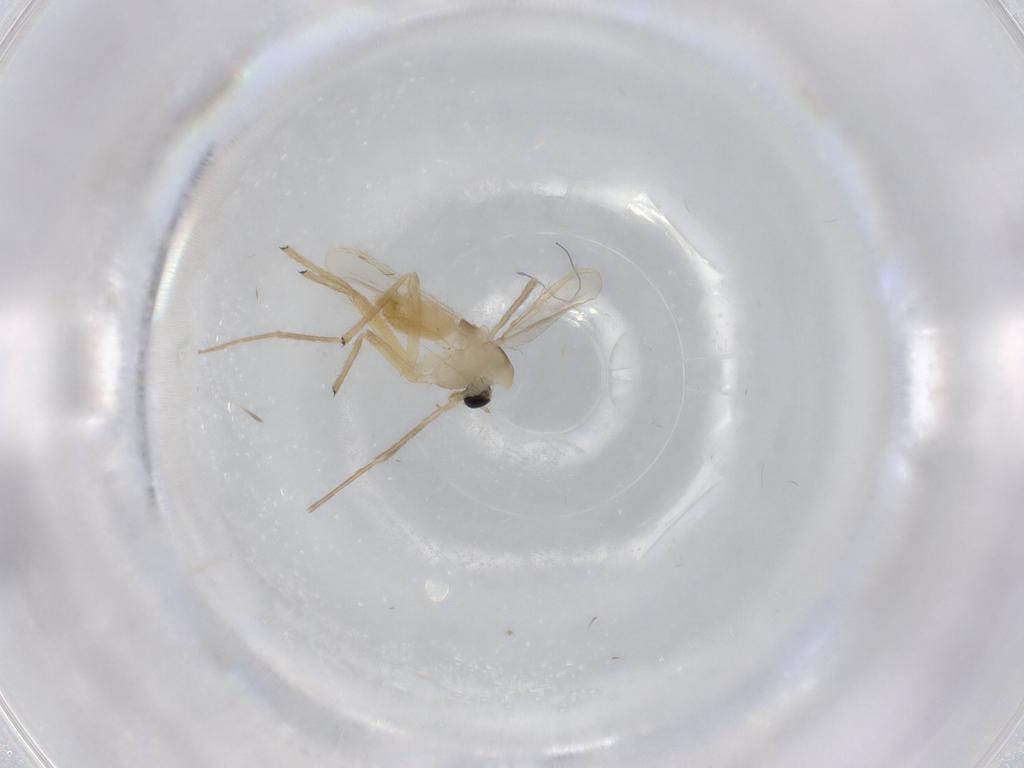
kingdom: Animalia
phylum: Arthropoda
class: Insecta
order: Diptera
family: Chironomidae
